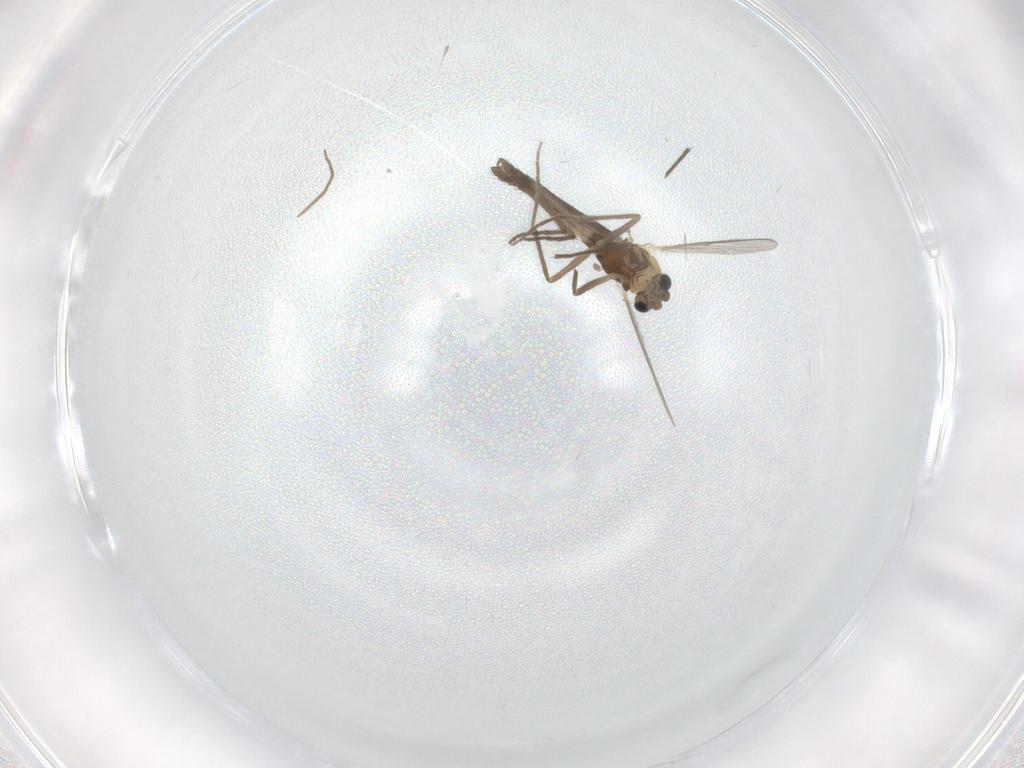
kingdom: Animalia
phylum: Arthropoda
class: Insecta
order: Diptera
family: Chironomidae
